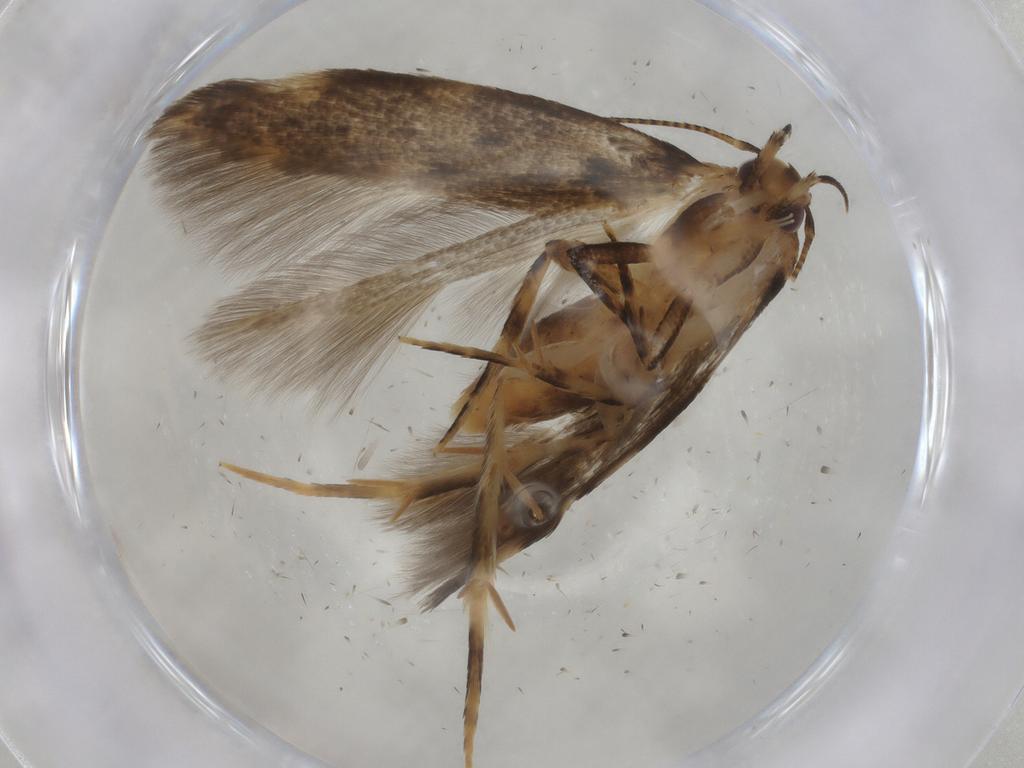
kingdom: Animalia
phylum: Arthropoda
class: Insecta
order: Lepidoptera
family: Cosmopterigidae
